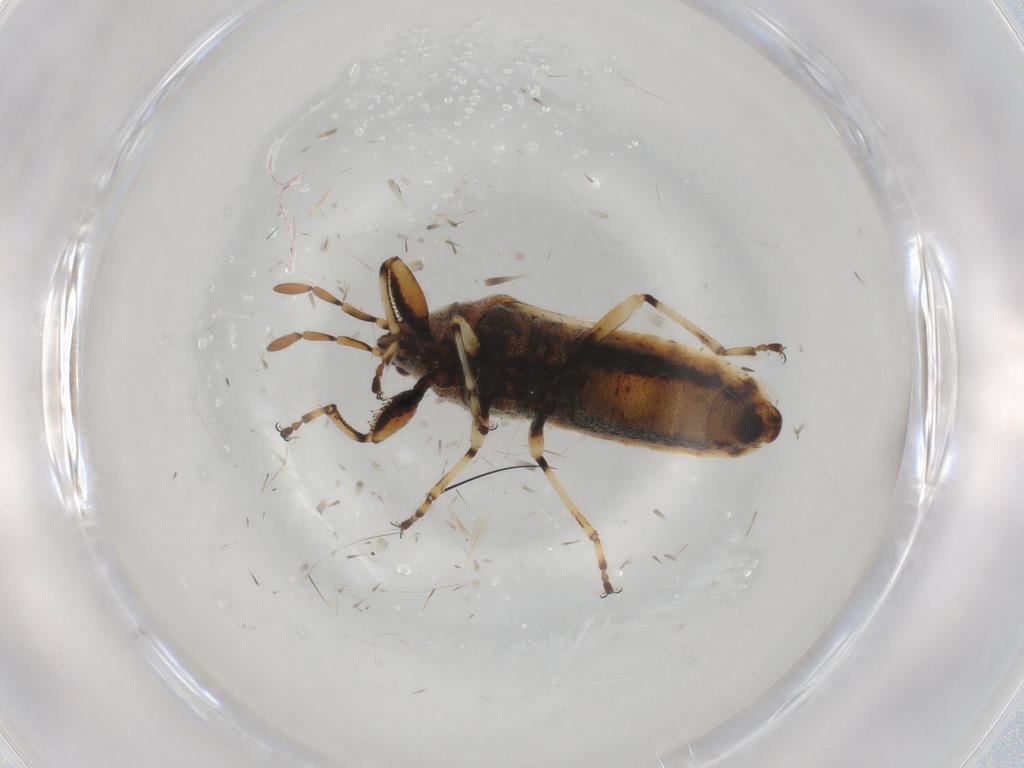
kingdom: Animalia
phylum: Arthropoda
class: Insecta
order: Hemiptera
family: Pachygronthidae
